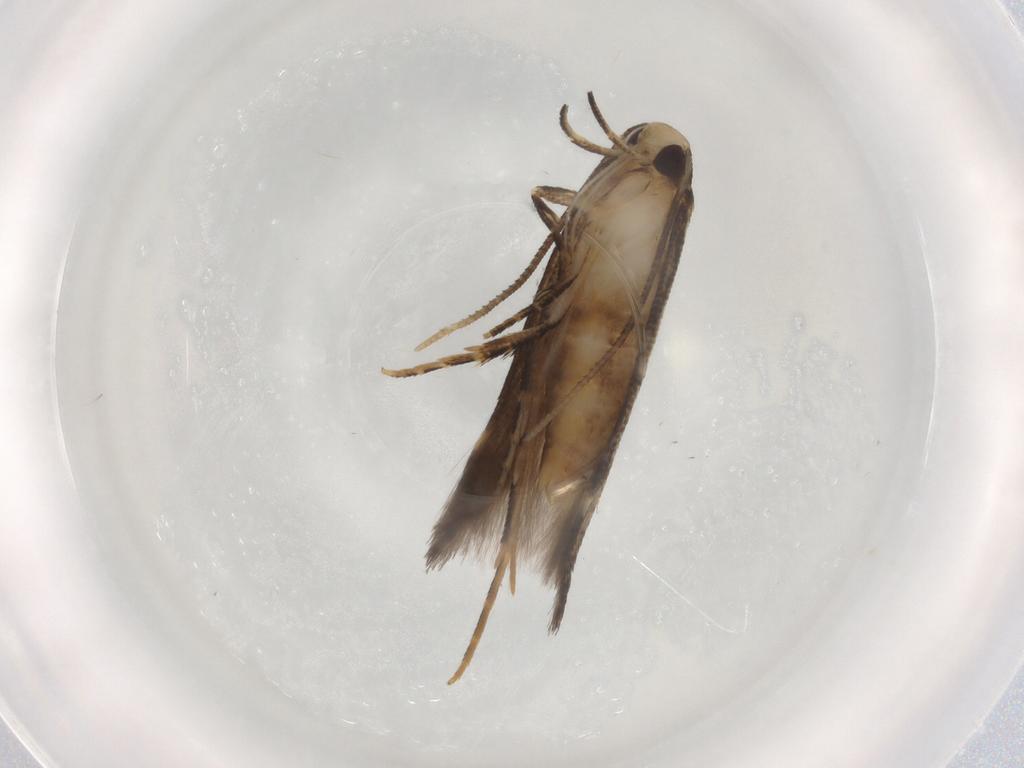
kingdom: Animalia
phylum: Arthropoda
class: Insecta
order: Lepidoptera
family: Cosmopterigidae
